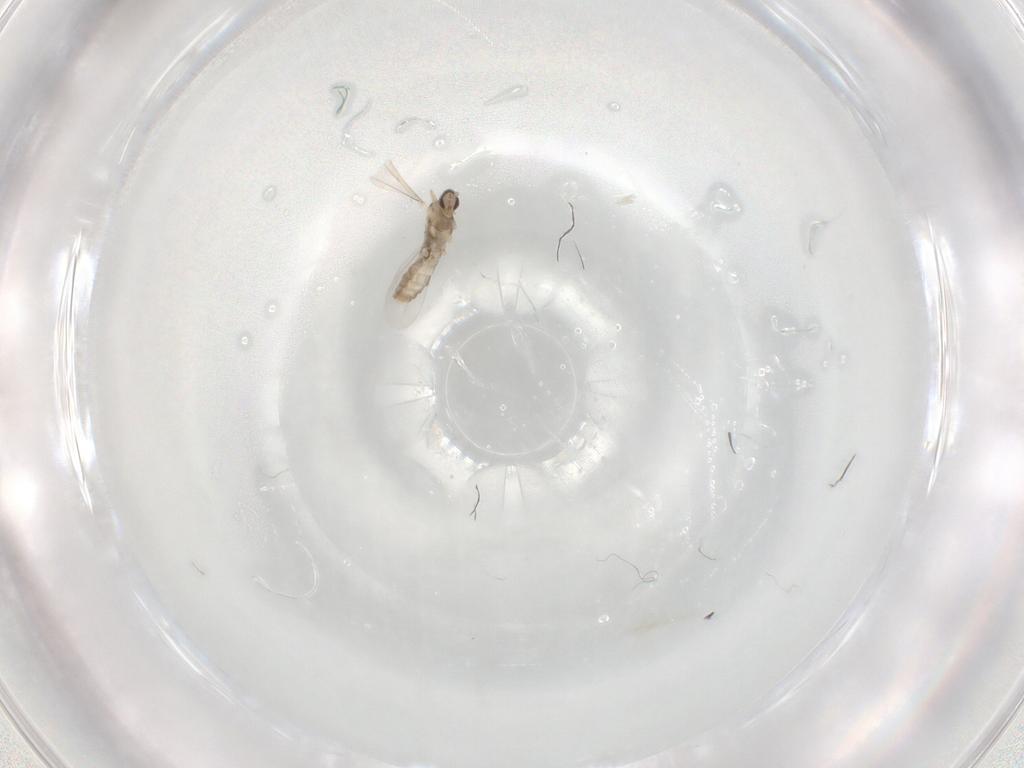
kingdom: Animalia
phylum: Arthropoda
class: Insecta
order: Diptera
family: Cecidomyiidae
